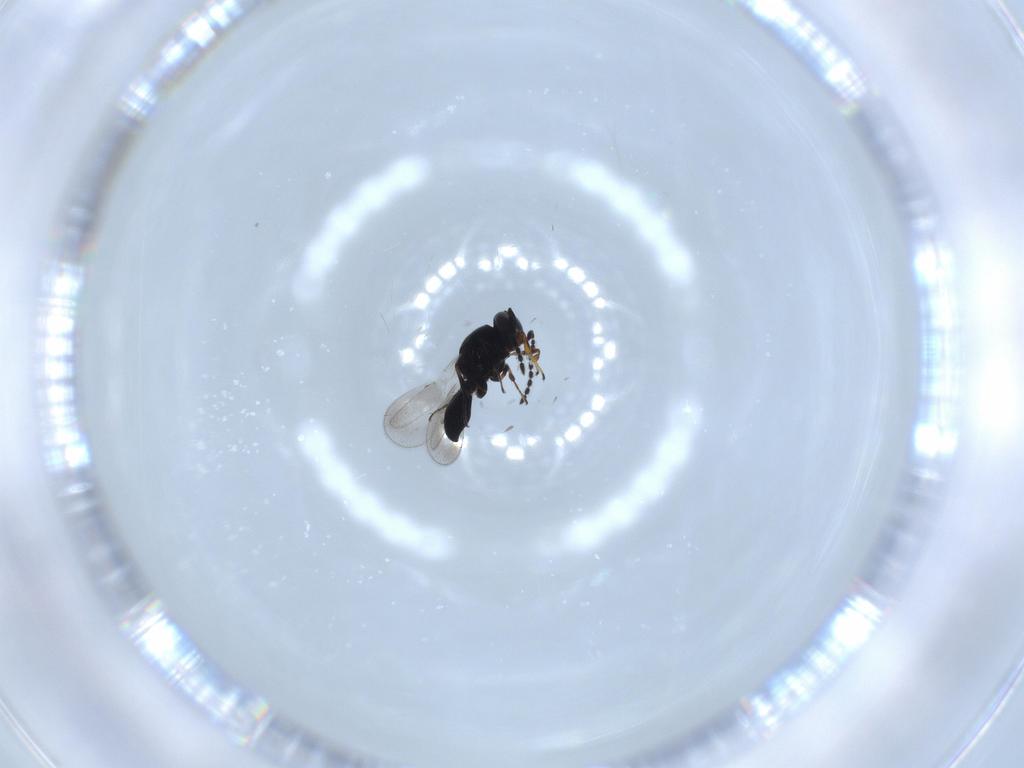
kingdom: Animalia
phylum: Arthropoda
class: Insecta
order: Hymenoptera
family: Platygastridae
